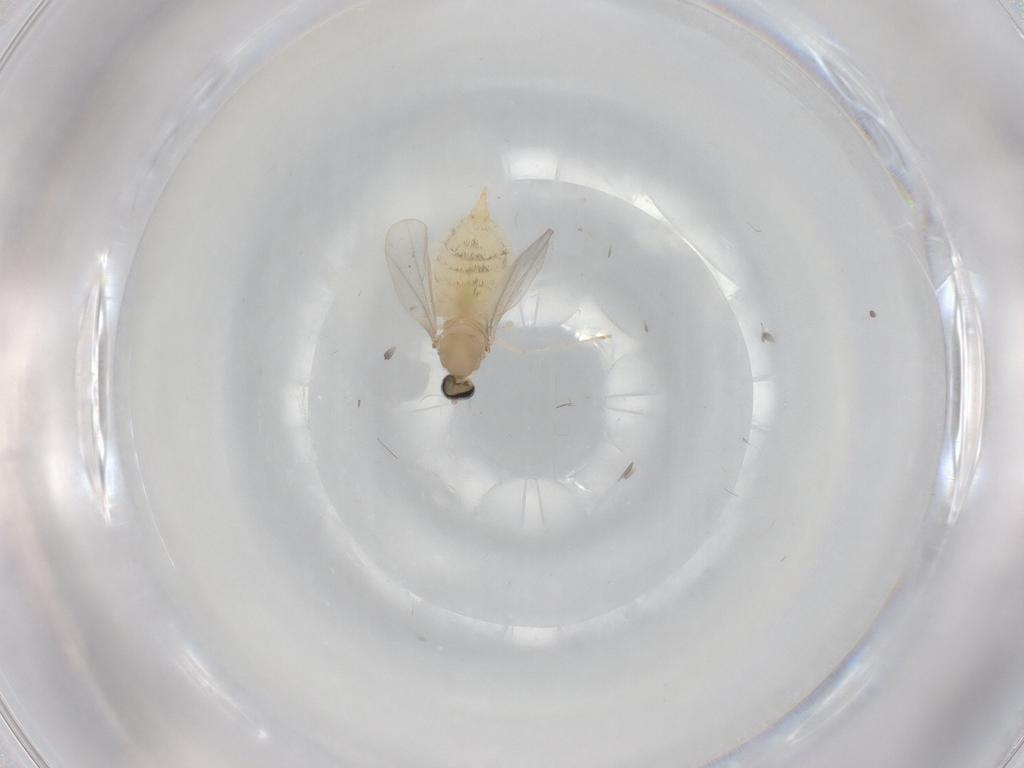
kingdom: Animalia
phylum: Arthropoda
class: Insecta
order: Diptera
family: Cecidomyiidae
